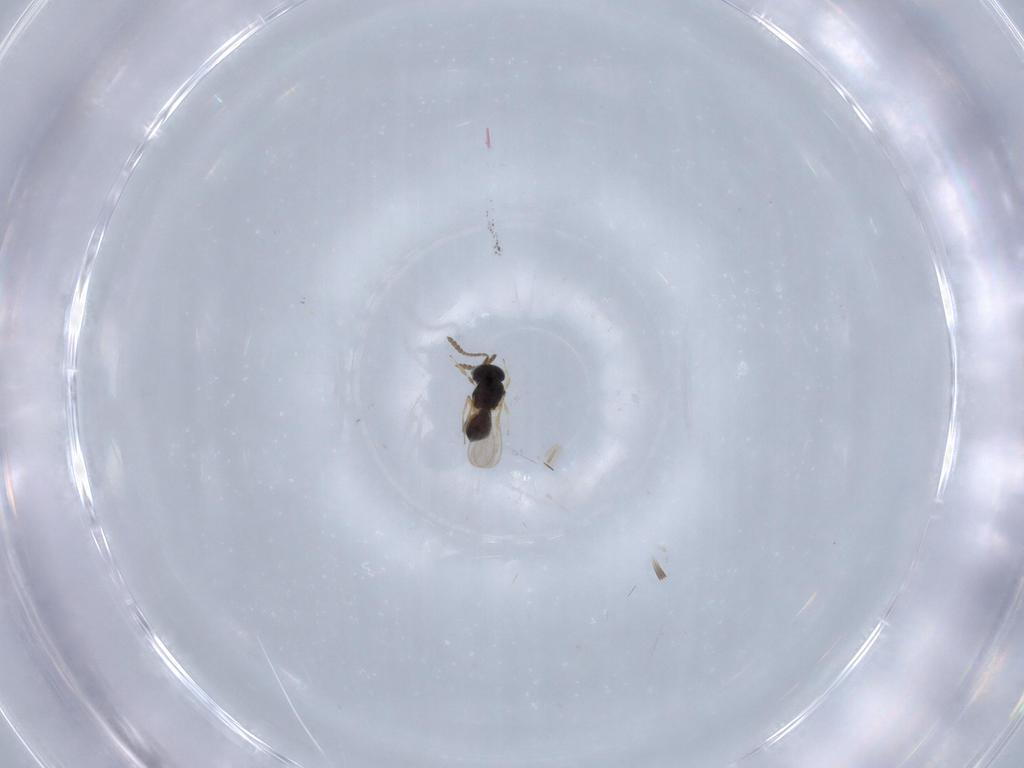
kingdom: Animalia
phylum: Arthropoda
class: Insecta
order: Hymenoptera
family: Scelionidae
